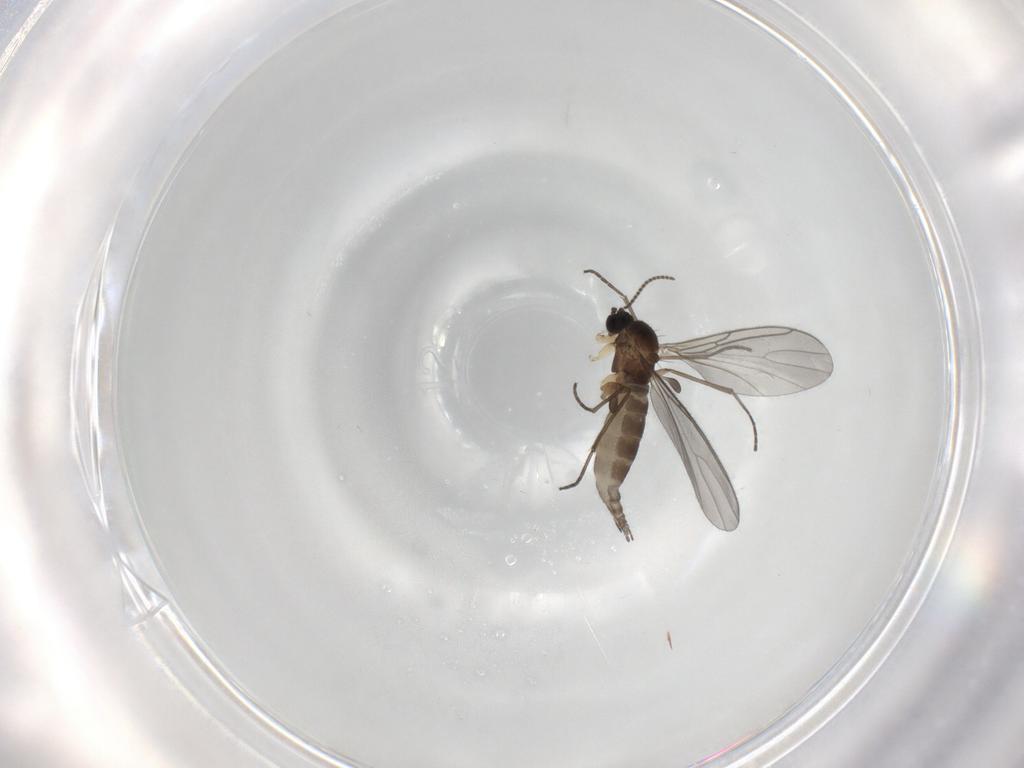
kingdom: Animalia
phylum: Arthropoda
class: Insecta
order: Diptera
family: Sciaridae
